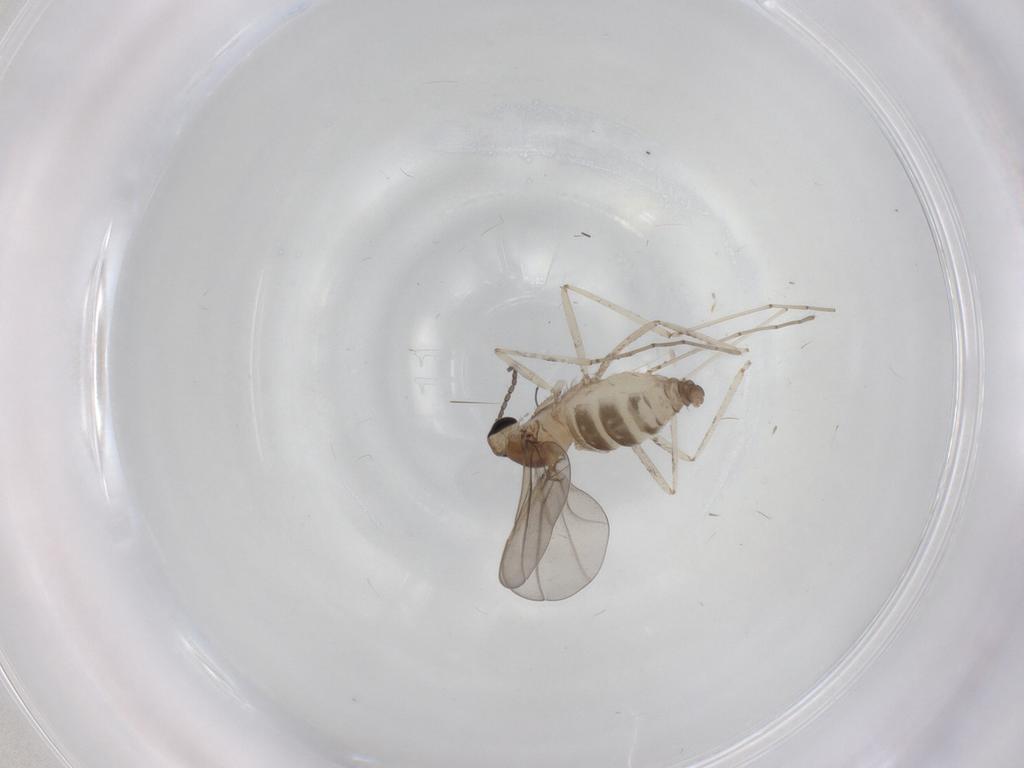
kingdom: Animalia
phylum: Arthropoda
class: Insecta
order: Diptera
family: Cecidomyiidae
